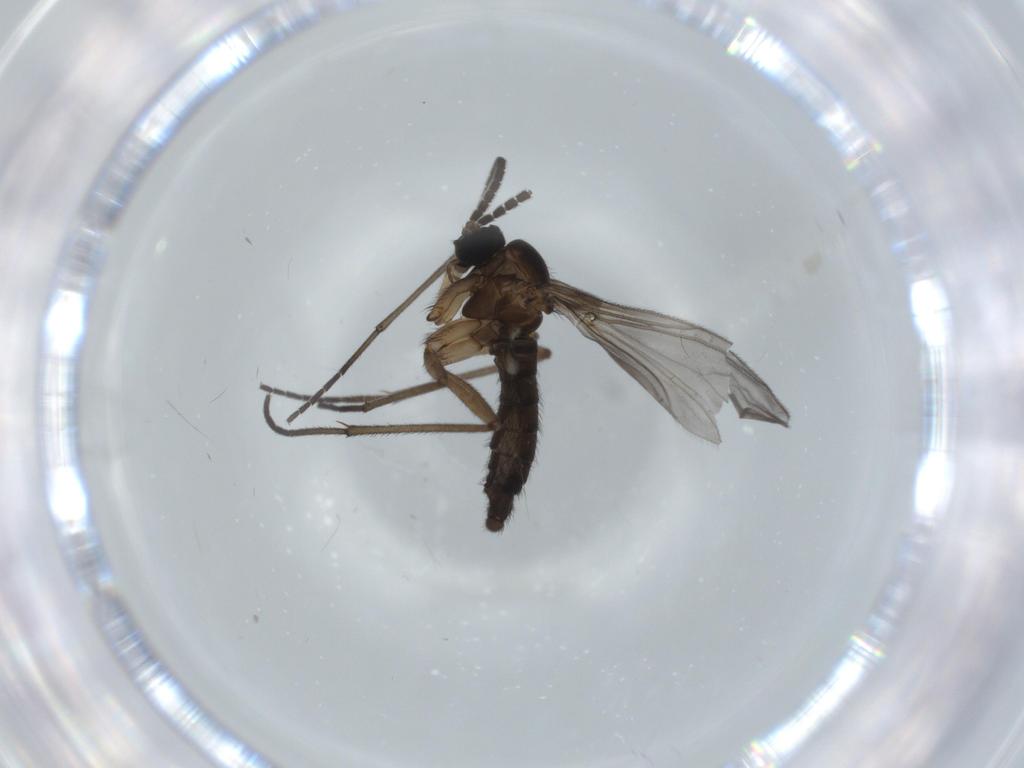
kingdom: Animalia
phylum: Arthropoda
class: Insecta
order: Diptera
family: Sciaridae
